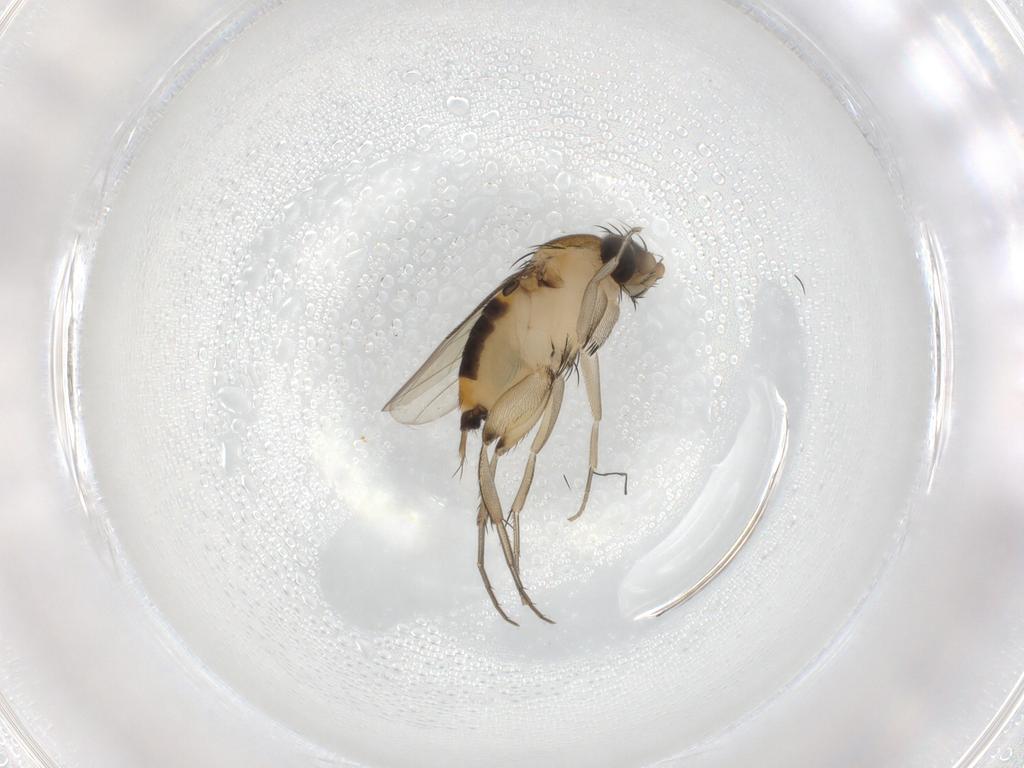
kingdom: Animalia
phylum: Arthropoda
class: Insecta
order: Diptera
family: Phoridae
